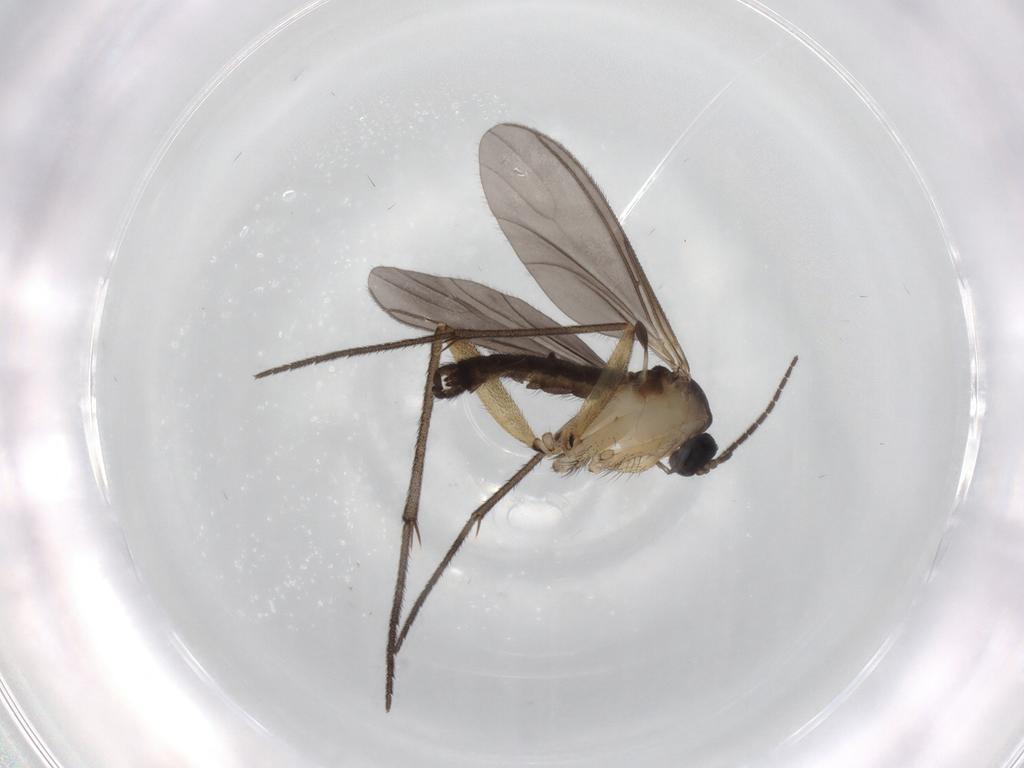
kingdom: Animalia
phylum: Arthropoda
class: Insecta
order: Diptera
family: Sciaridae
